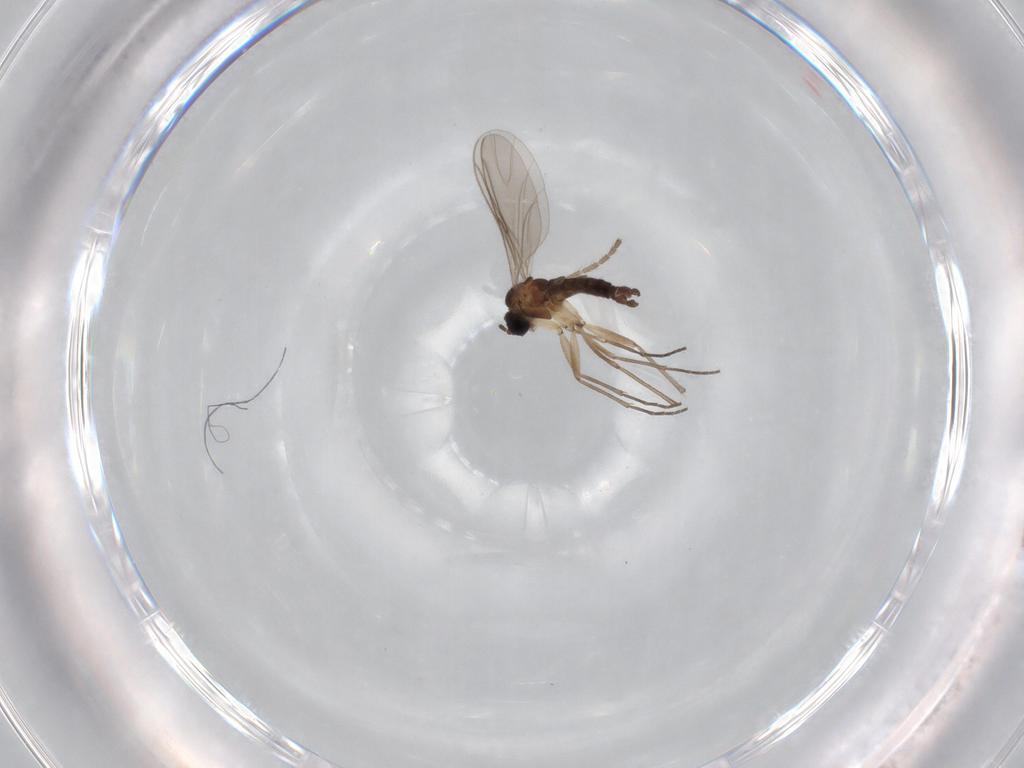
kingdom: Animalia
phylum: Arthropoda
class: Insecta
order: Diptera
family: Sciaridae
